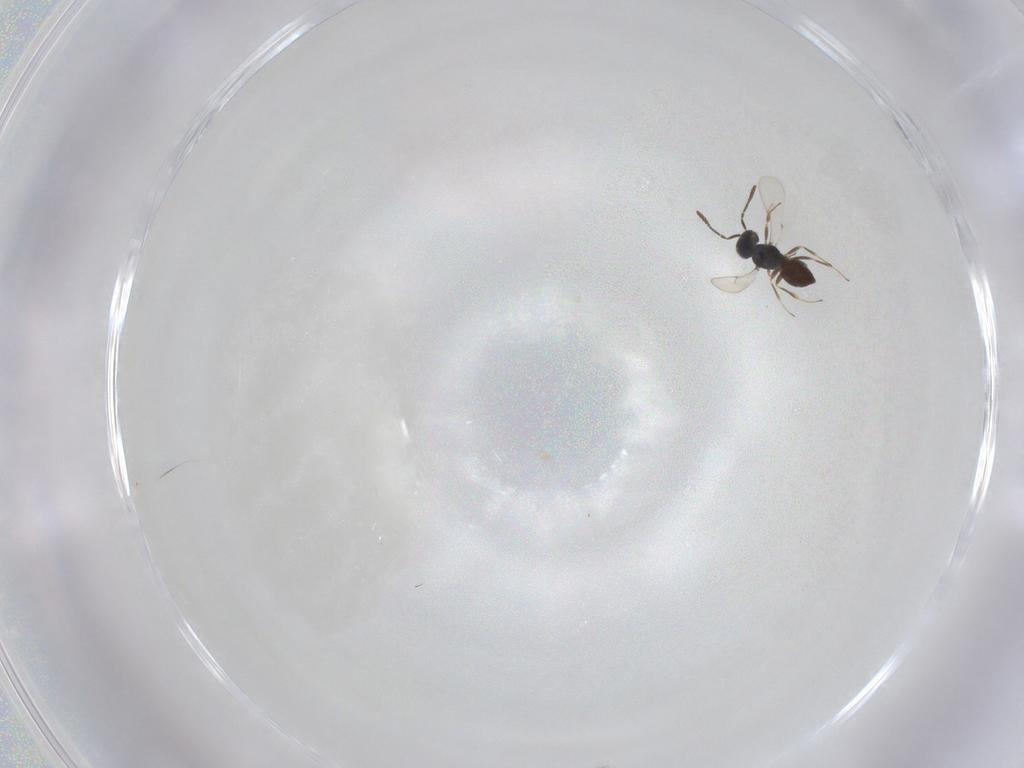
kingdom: Animalia
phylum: Arthropoda
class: Insecta
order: Hymenoptera
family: Scelionidae
